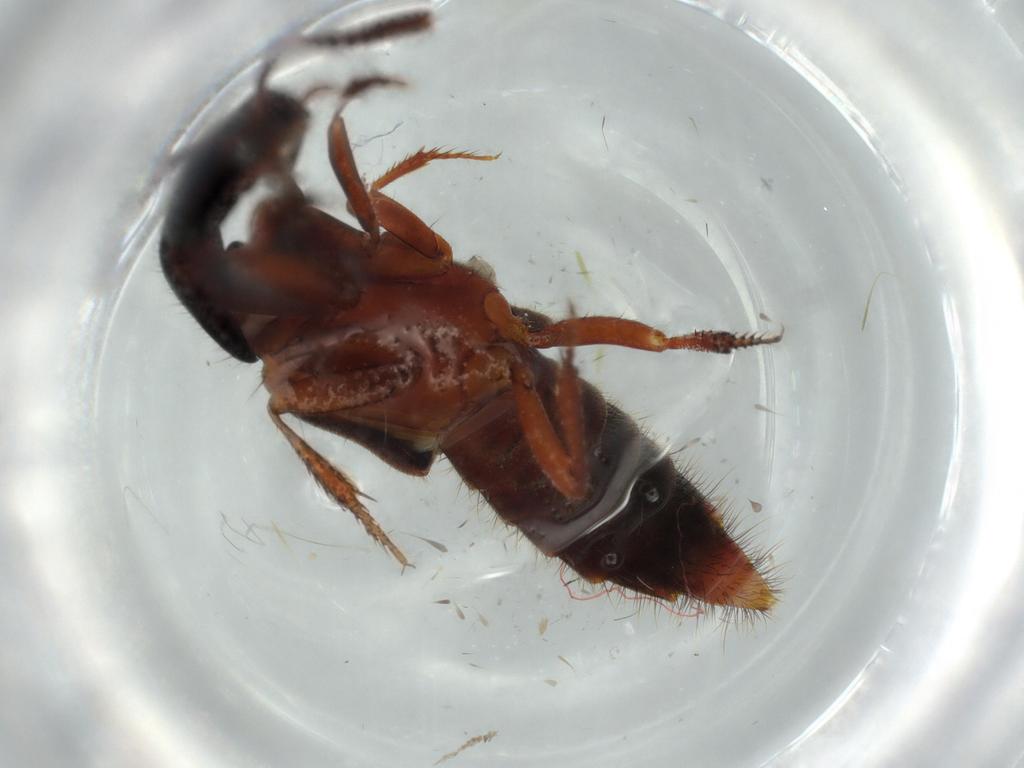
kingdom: Animalia
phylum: Arthropoda
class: Insecta
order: Coleoptera
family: Staphylinidae
